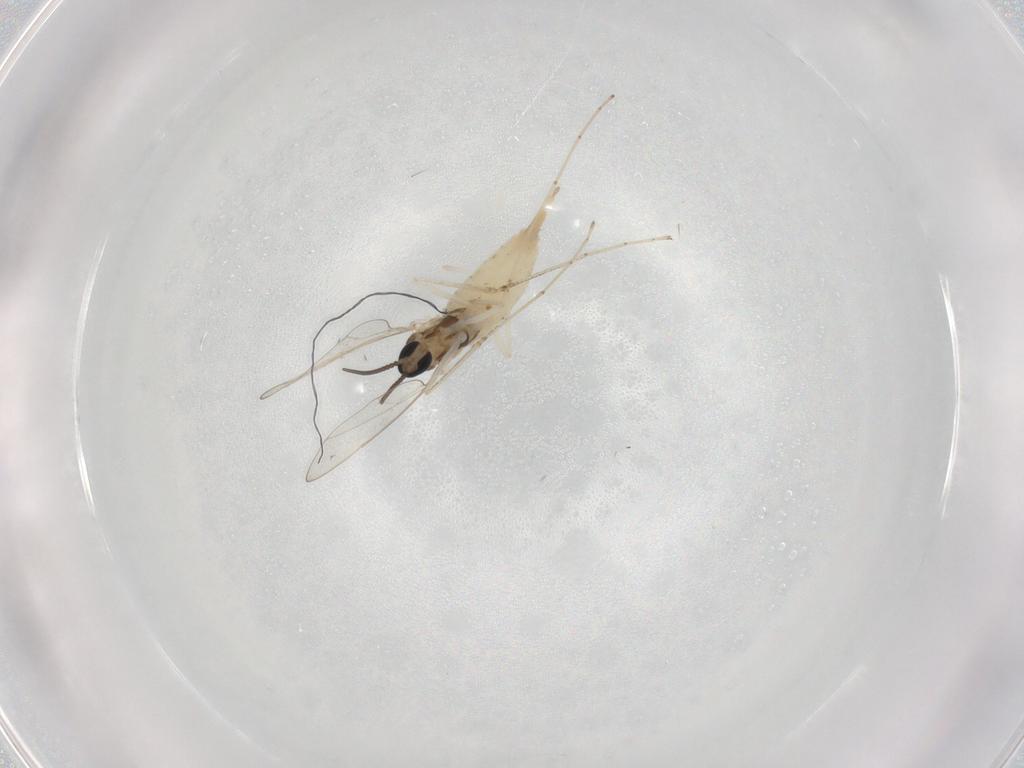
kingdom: Animalia
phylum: Arthropoda
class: Insecta
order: Diptera
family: Cecidomyiidae
